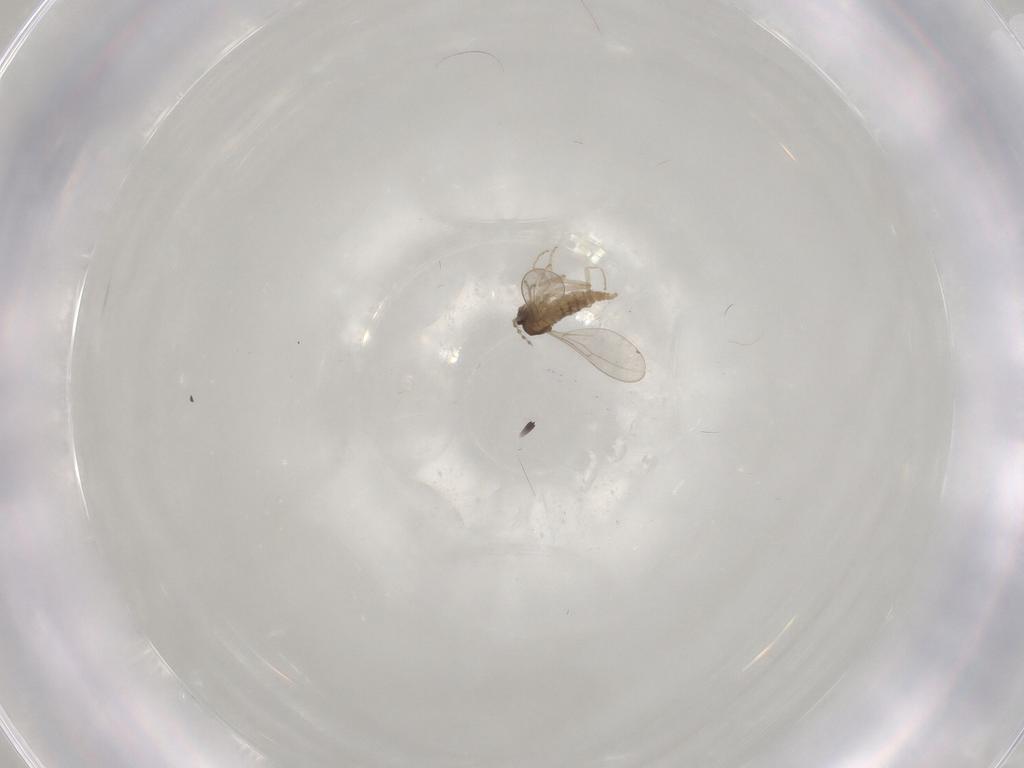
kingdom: Animalia
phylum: Arthropoda
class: Insecta
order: Diptera
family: Cecidomyiidae
